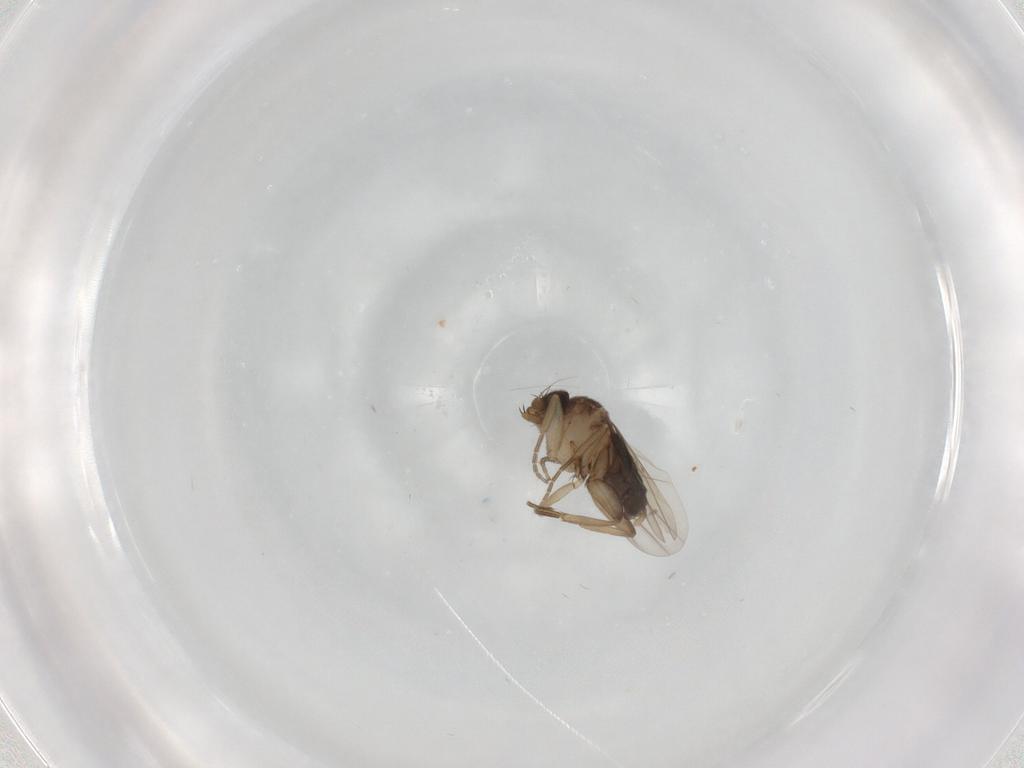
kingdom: Animalia
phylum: Arthropoda
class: Insecta
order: Diptera
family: Phoridae
